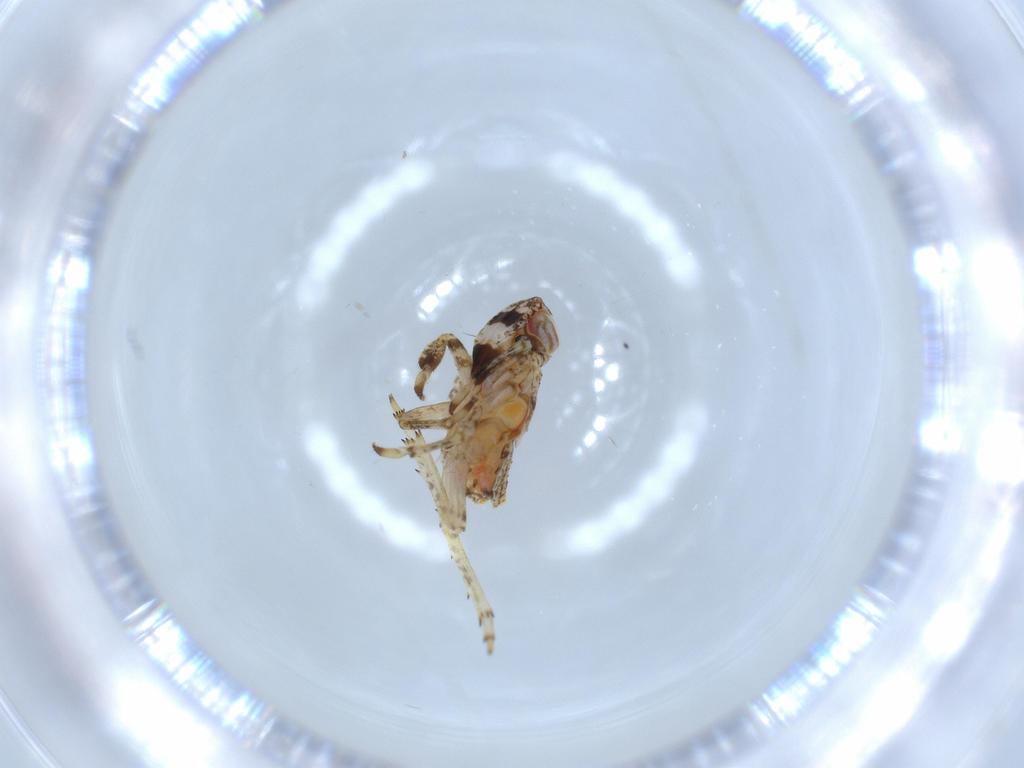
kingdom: Animalia
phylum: Arthropoda
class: Insecta
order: Hemiptera
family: Issidae
